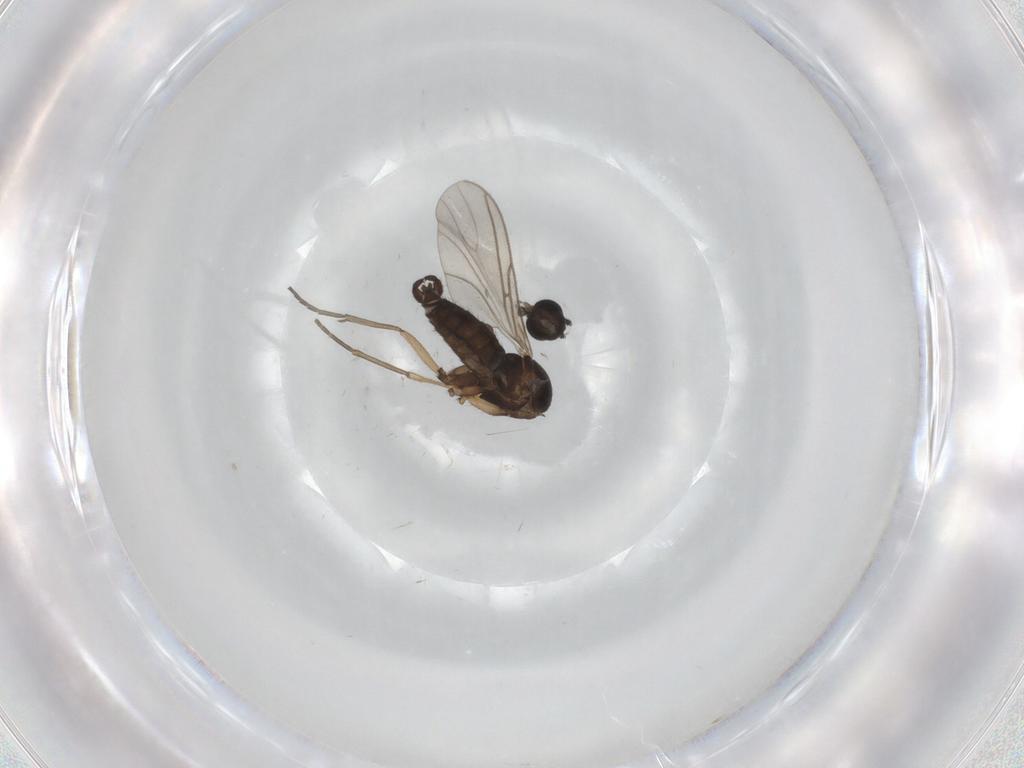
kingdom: Animalia
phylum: Arthropoda
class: Insecta
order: Diptera
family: Sciaridae
